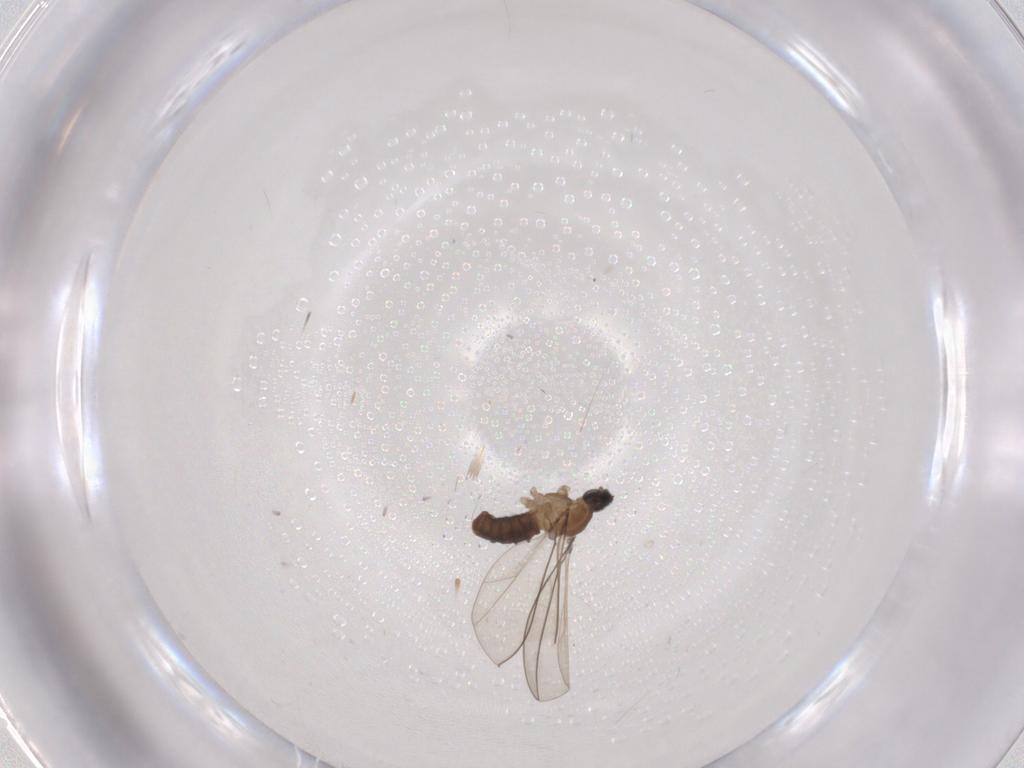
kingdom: Animalia
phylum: Arthropoda
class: Insecta
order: Diptera
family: Cecidomyiidae
